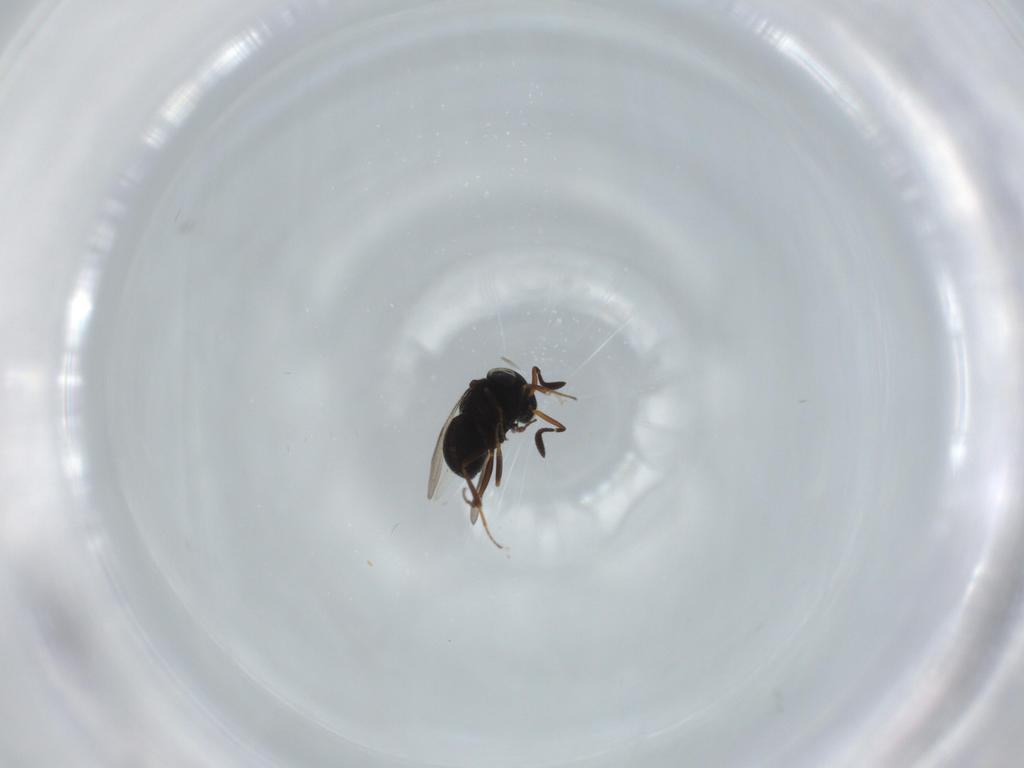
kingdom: Animalia
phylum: Arthropoda
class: Insecta
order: Hymenoptera
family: Scelionidae
